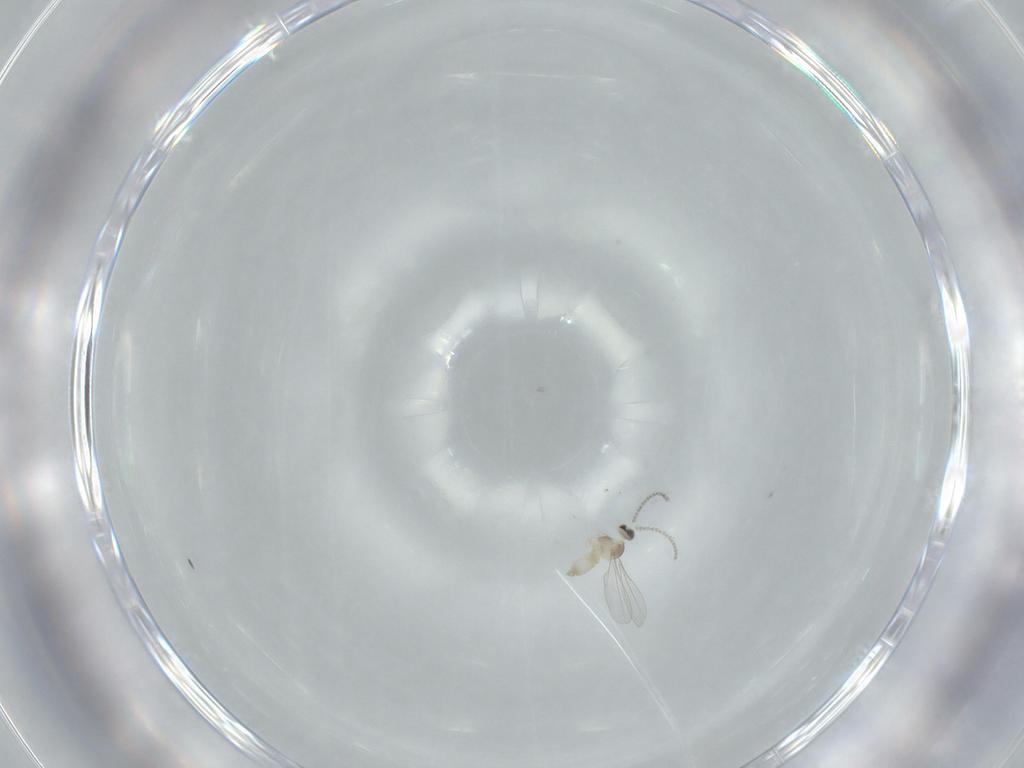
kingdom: Animalia
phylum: Arthropoda
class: Insecta
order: Diptera
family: Cecidomyiidae
